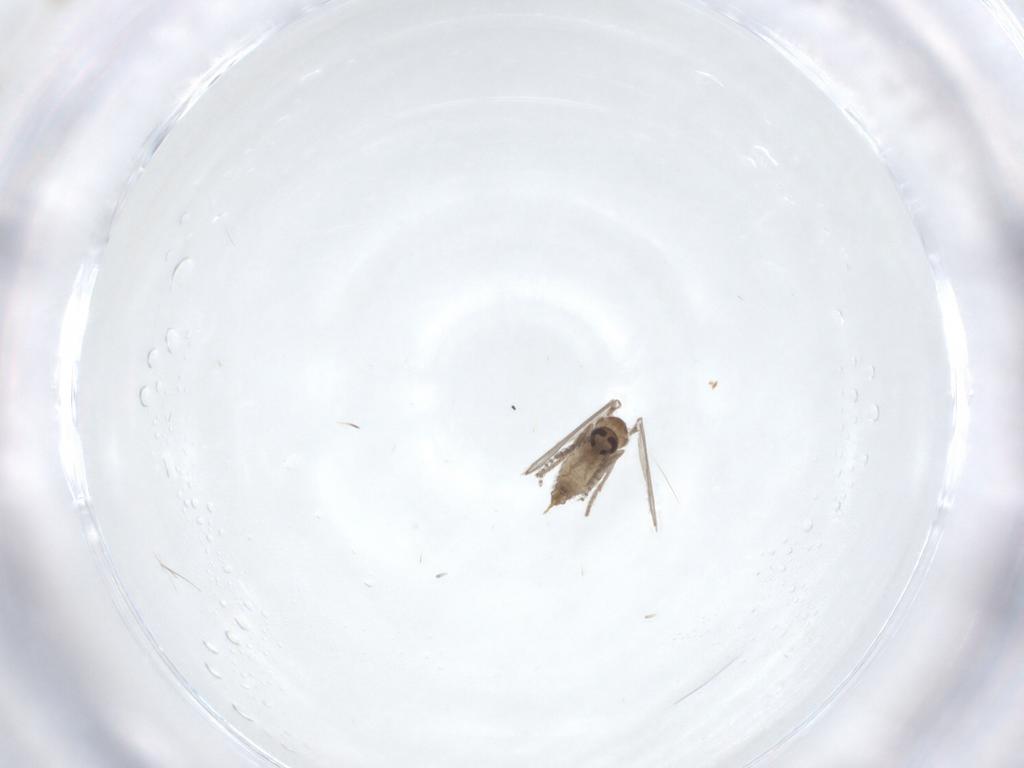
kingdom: Animalia
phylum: Arthropoda
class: Insecta
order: Diptera
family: Psychodidae
